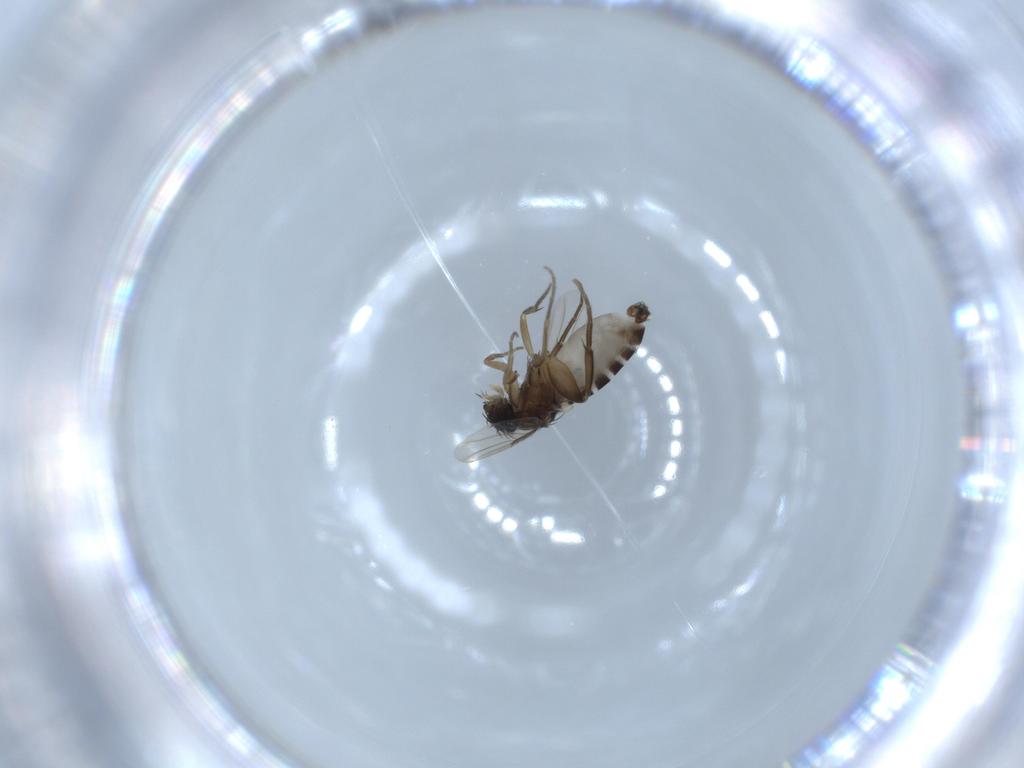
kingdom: Animalia
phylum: Arthropoda
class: Insecta
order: Diptera
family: Phoridae
